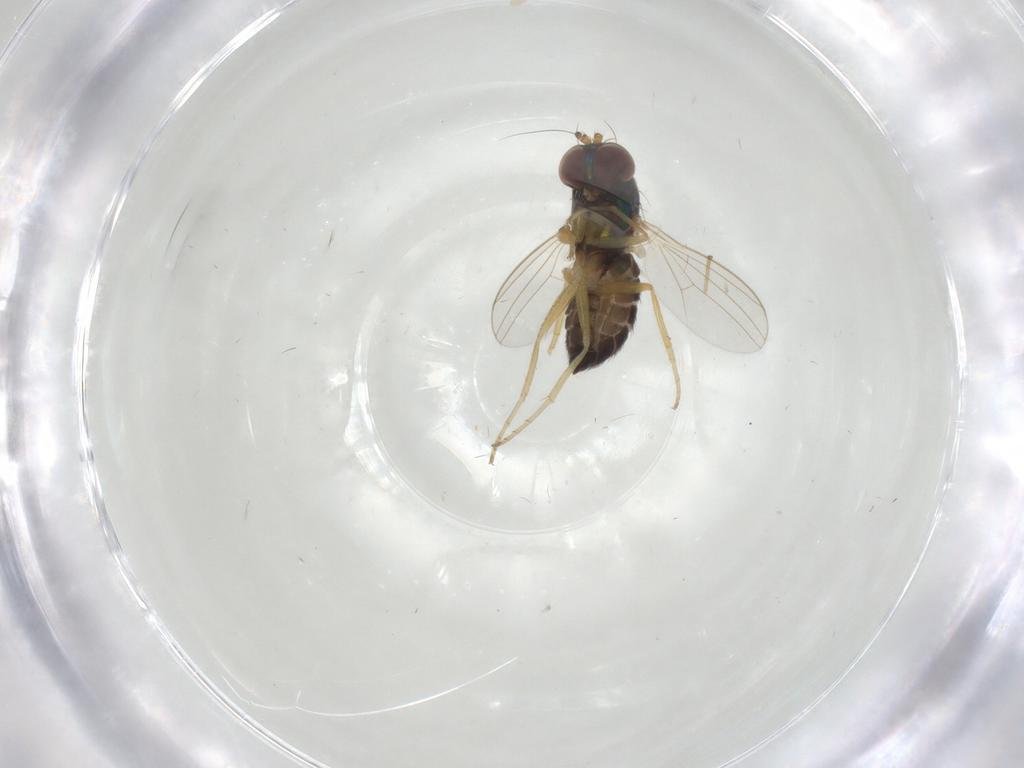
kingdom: Animalia
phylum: Arthropoda
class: Insecta
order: Diptera
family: Dolichopodidae
